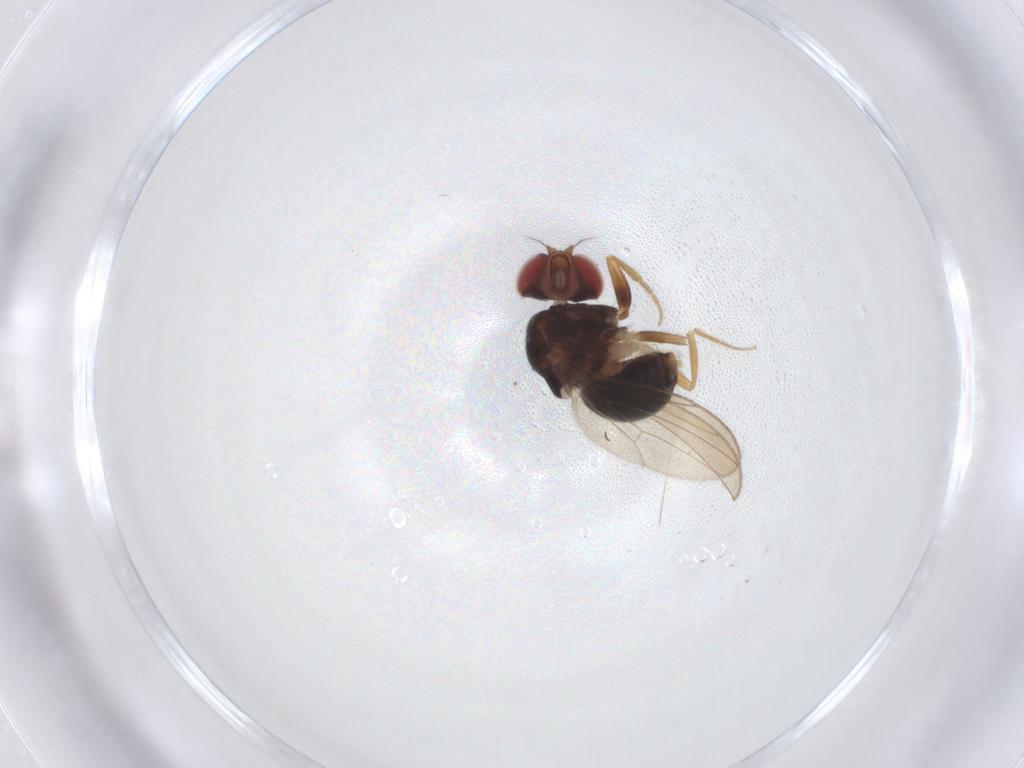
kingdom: Animalia
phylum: Arthropoda
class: Insecta
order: Diptera
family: Drosophilidae
